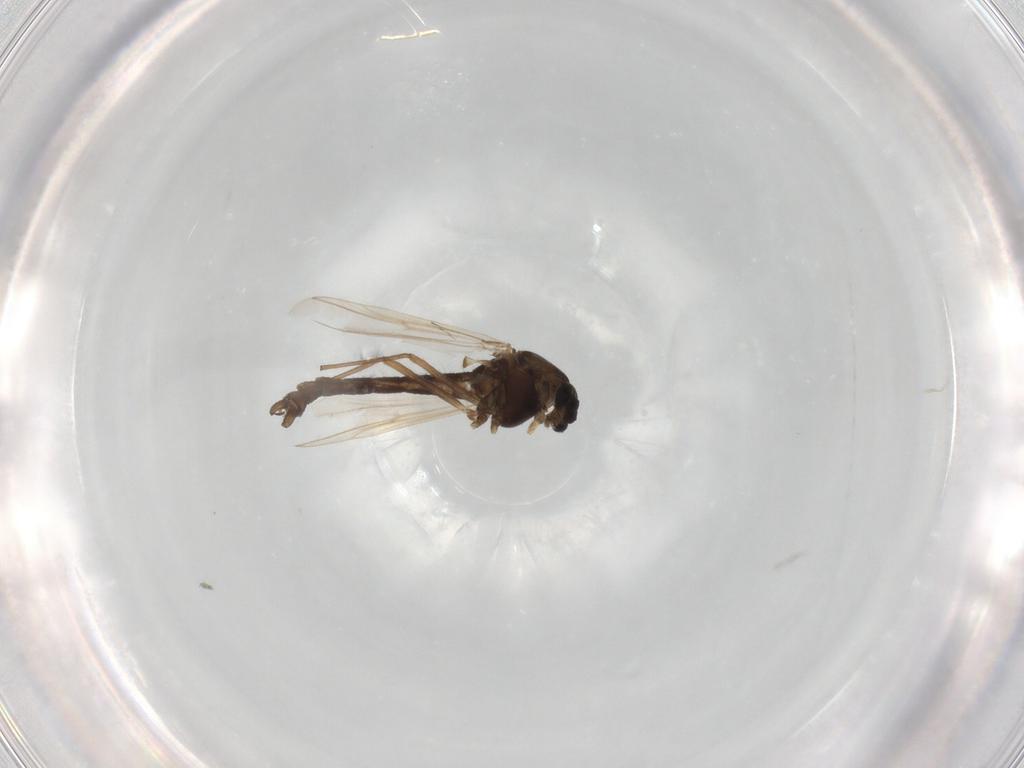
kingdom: Animalia
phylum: Arthropoda
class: Insecta
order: Diptera
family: Chironomidae
